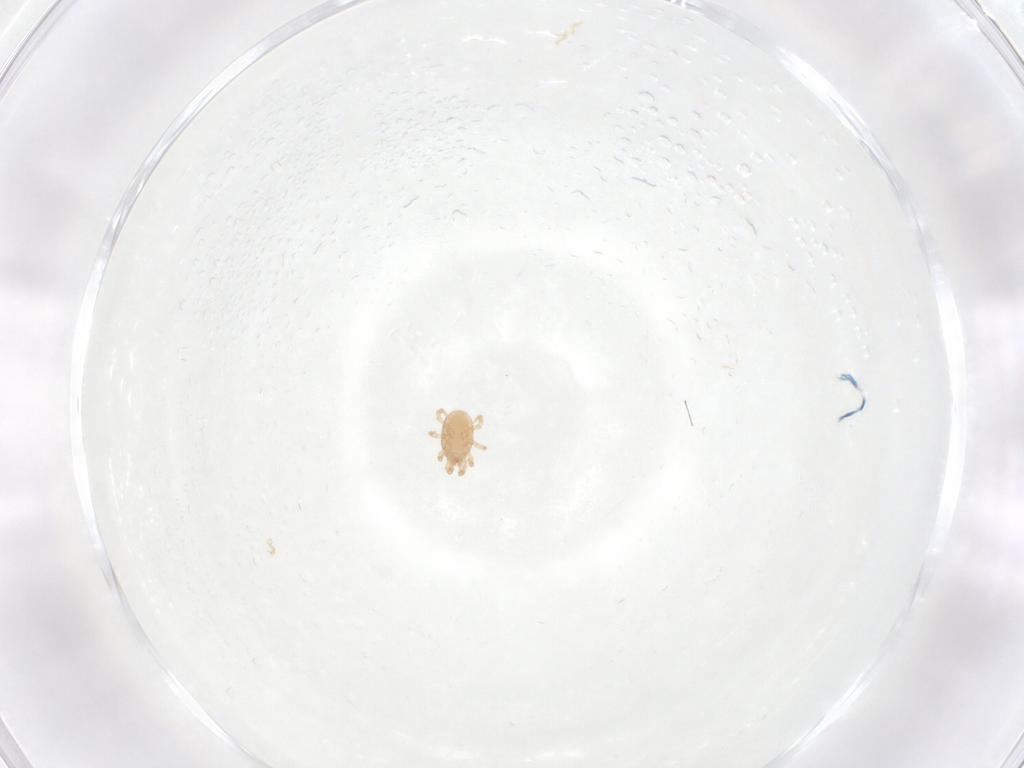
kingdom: Animalia
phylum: Arthropoda
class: Arachnida
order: Mesostigmata
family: Melicharidae
